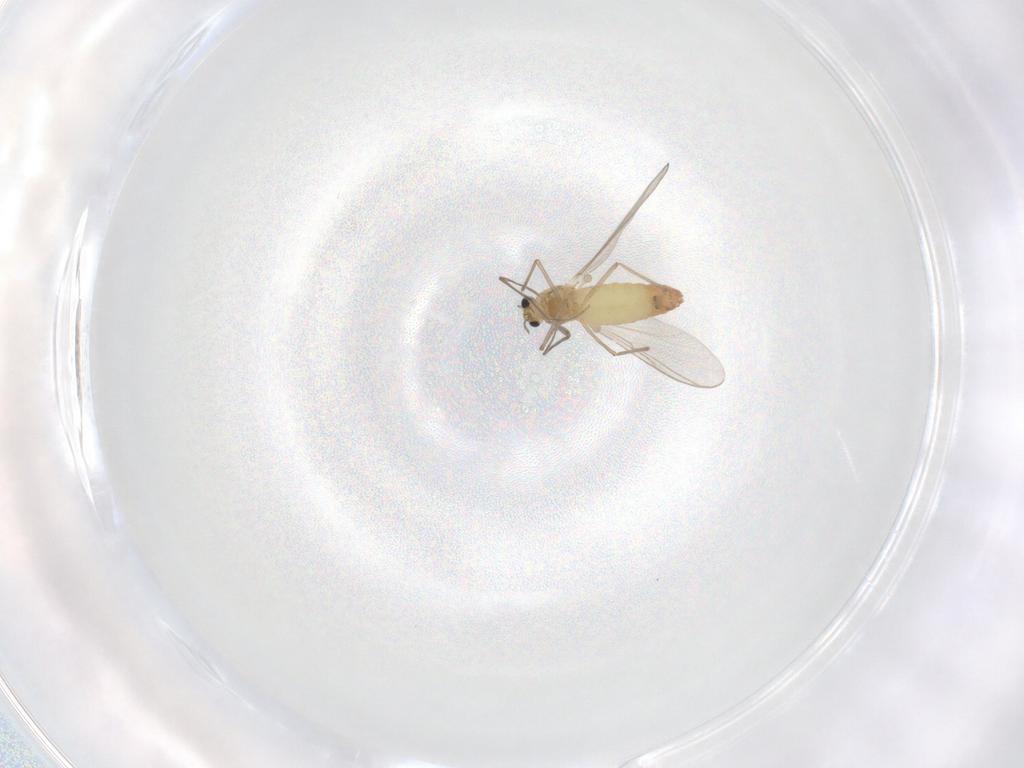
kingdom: Animalia
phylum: Arthropoda
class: Insecta
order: Diptera
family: Chironomidae
